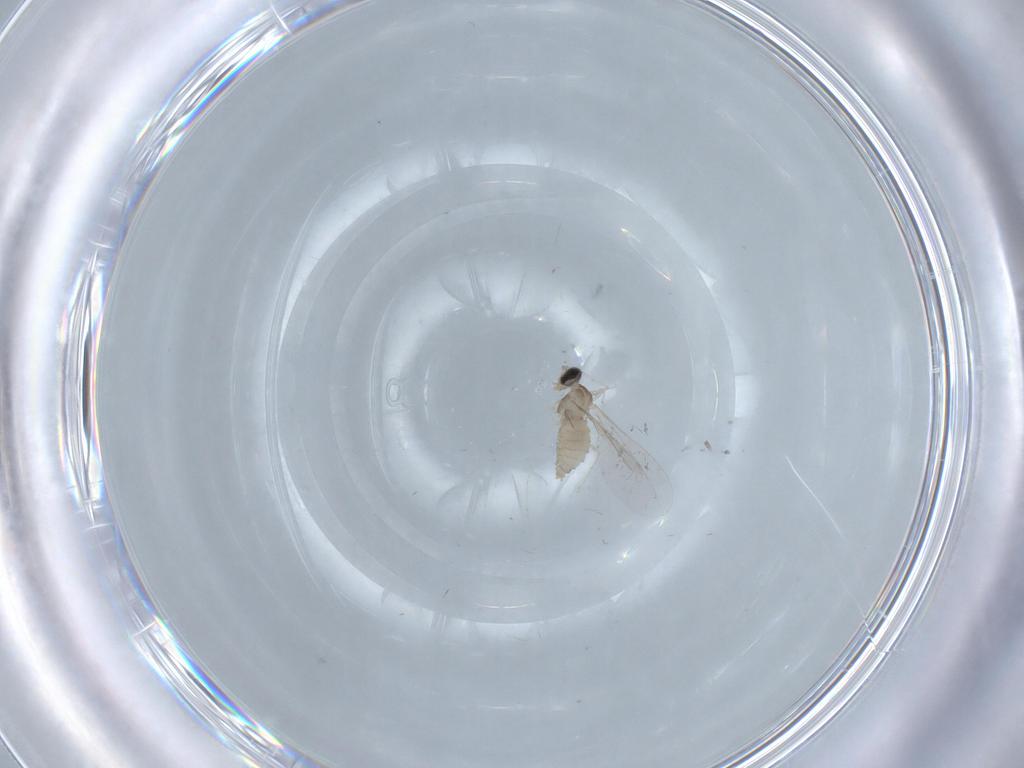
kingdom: Animalia
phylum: Arthropoda
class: Insecta
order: Diptera
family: Cecidomyiidae
